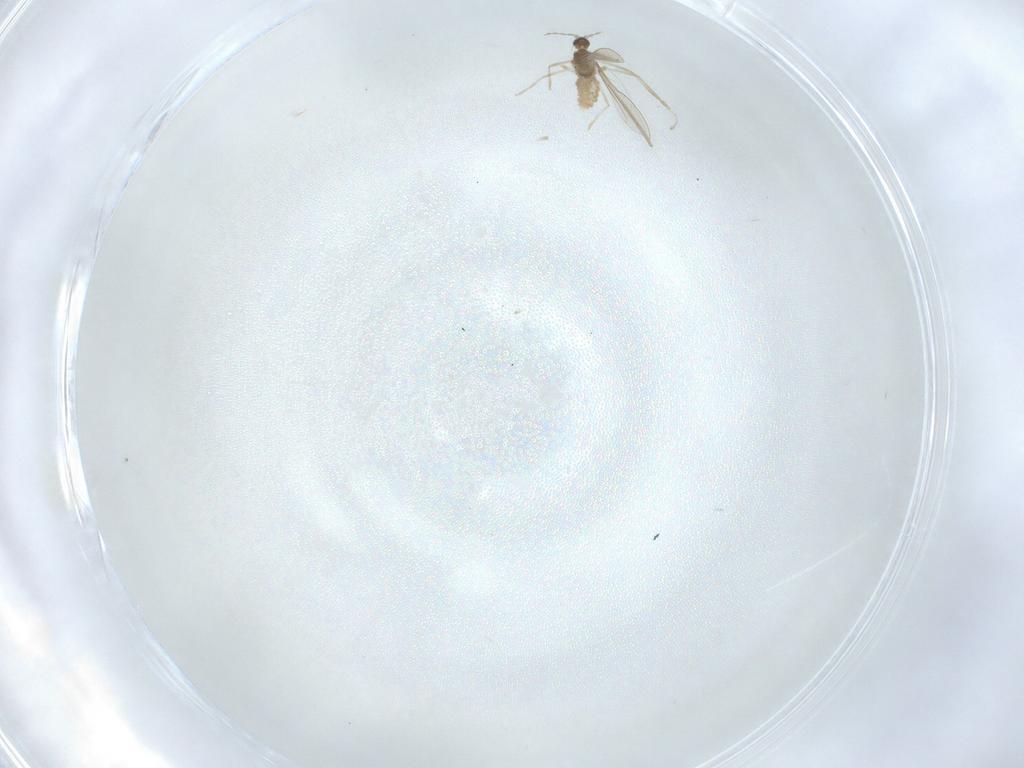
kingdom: Animalia
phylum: Arthropoda
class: Insecta
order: Diptera
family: Cecidomyiidae
